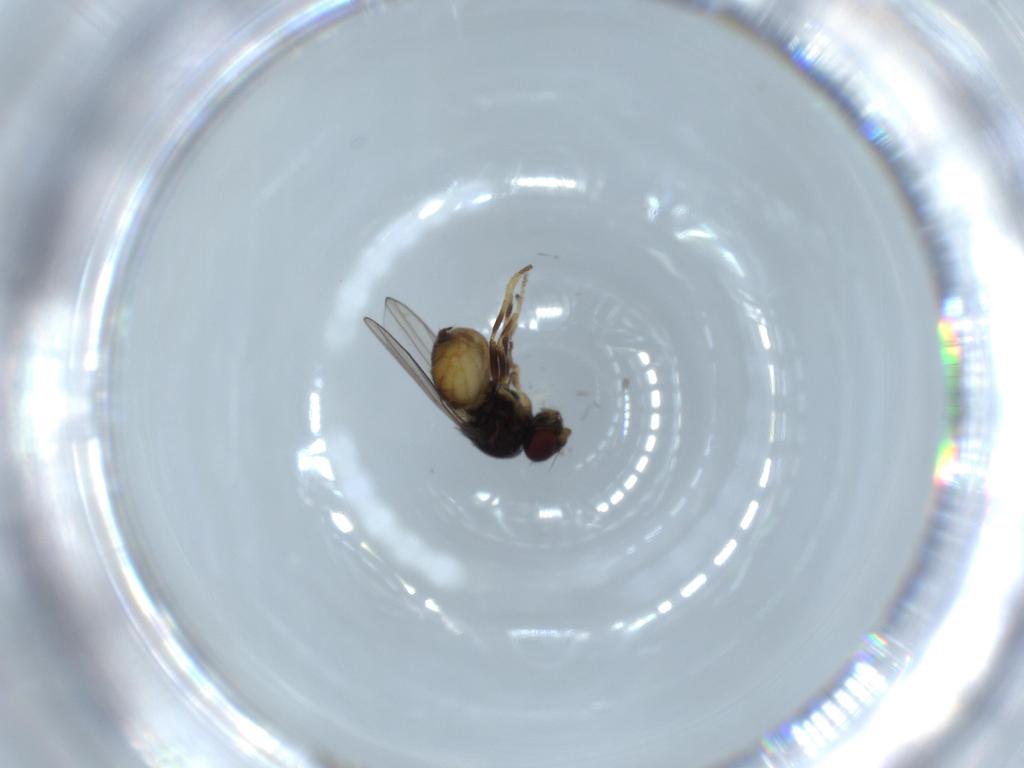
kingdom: Animalia
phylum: Arthropoda
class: Insecta
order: Diptera
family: Chloropidae
